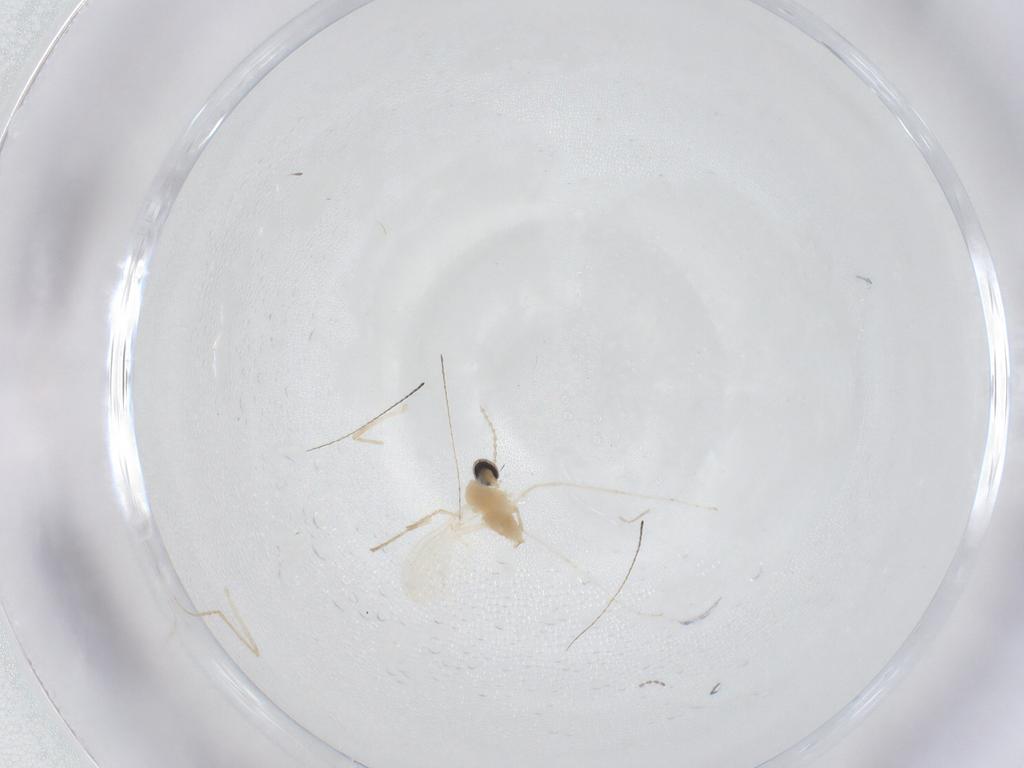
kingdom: Animalia
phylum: Arthropoda
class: Insecta
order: Diptera
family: Cecidomyiidae
